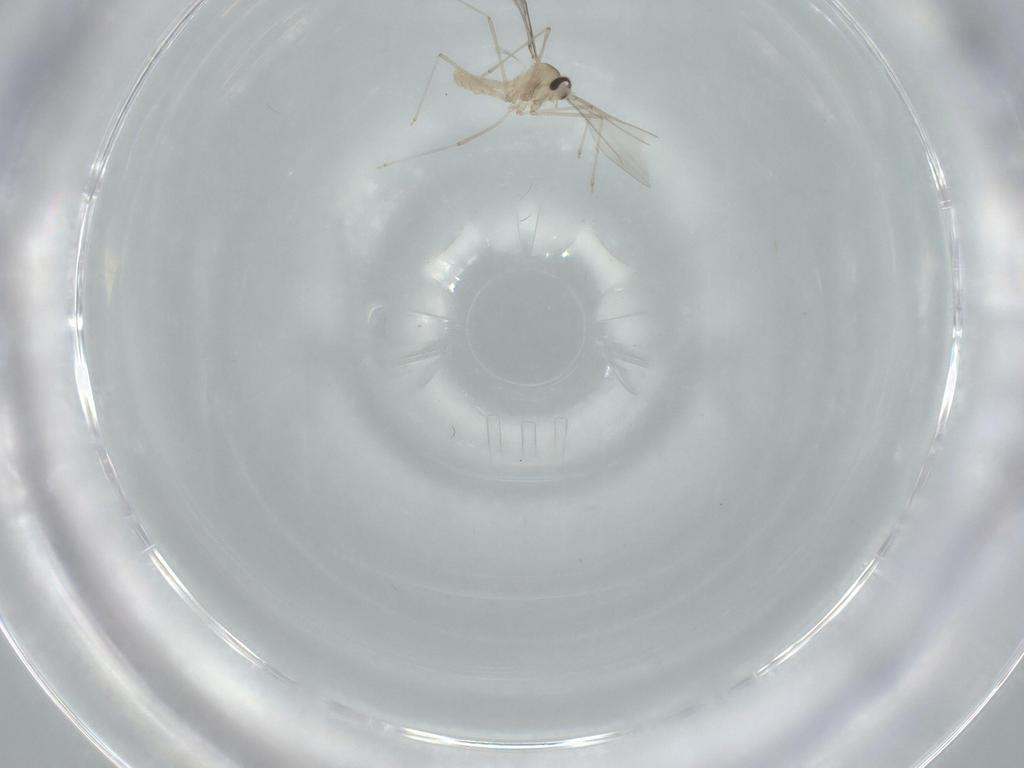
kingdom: Animalia
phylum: Arthropoda
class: Insecta
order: Diptera
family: Cecidomyiidae
